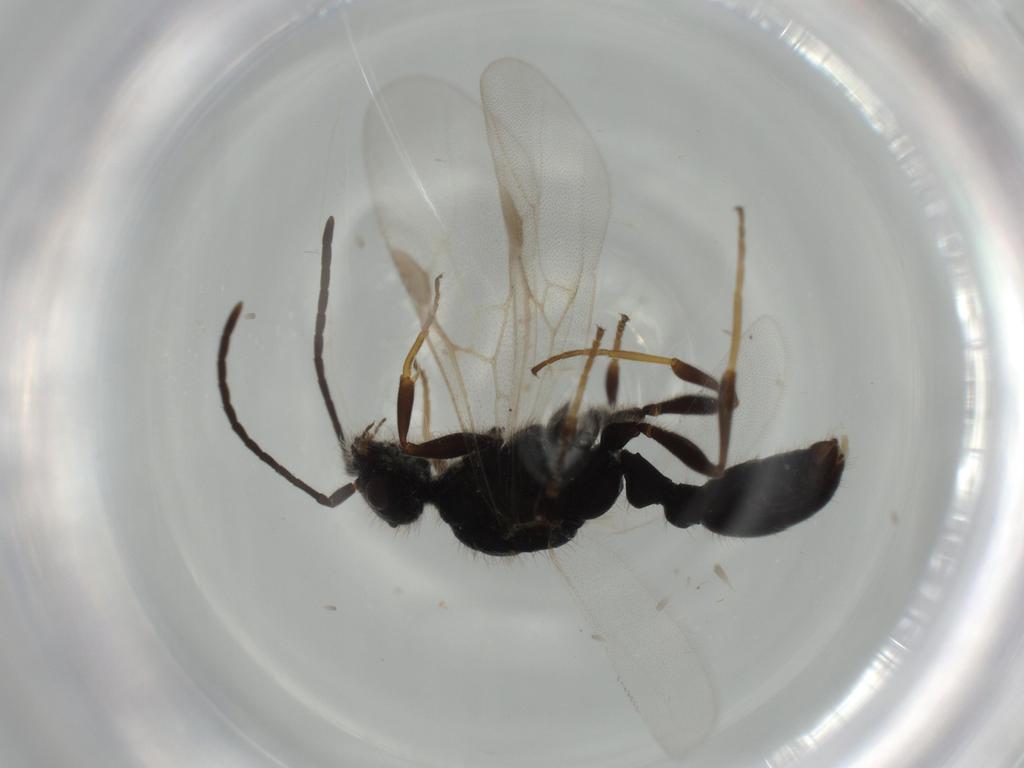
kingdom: Animalia
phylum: Arthropoda
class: Insecta
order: Hymenoptera
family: Formicidae
